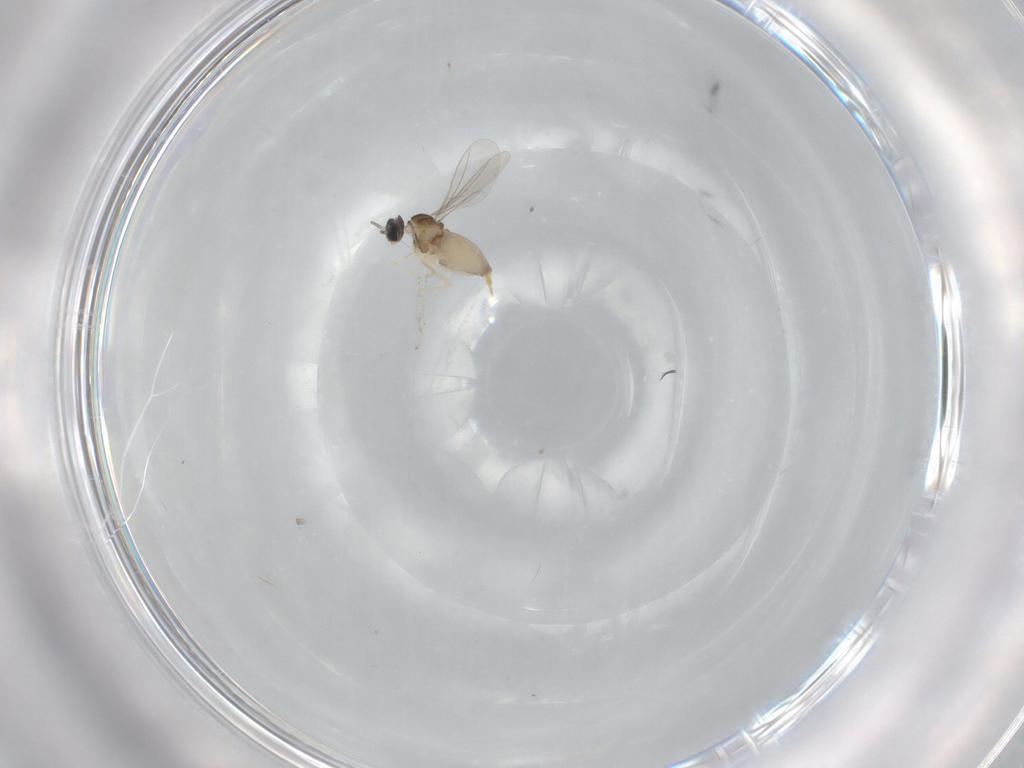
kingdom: Animalia
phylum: Arthropoda
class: Insecta
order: Diptera
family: Cecidomyiidae
